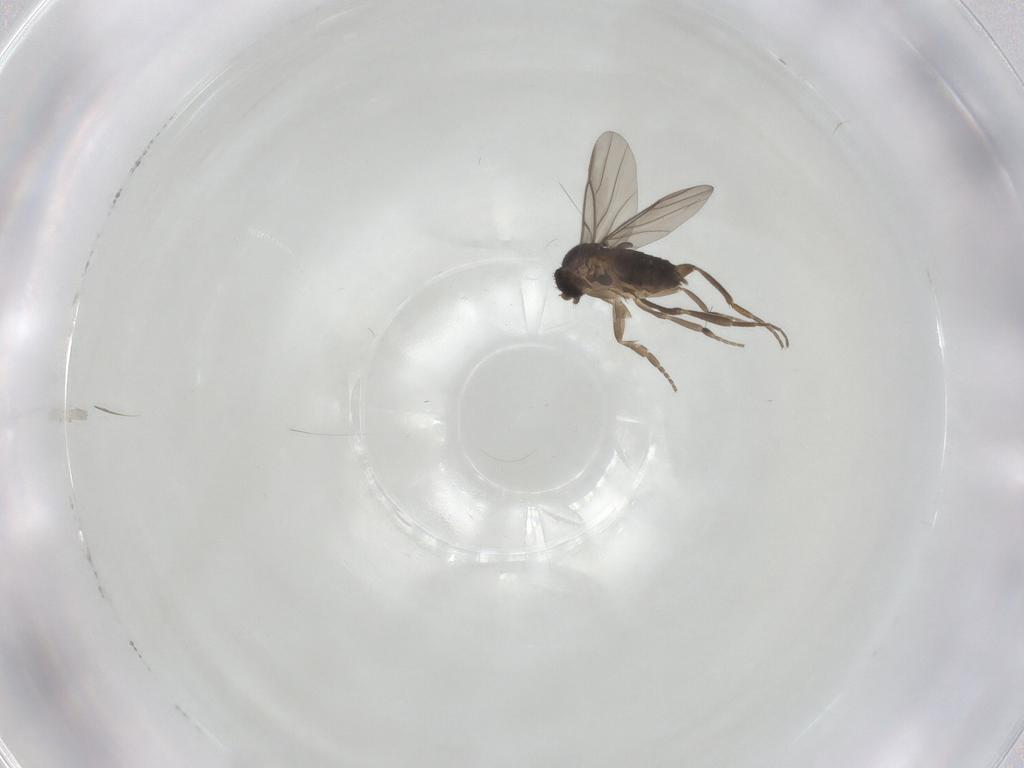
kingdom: Animalia
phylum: Arthropoda
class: Insecta
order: Diptera
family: Phoridae
